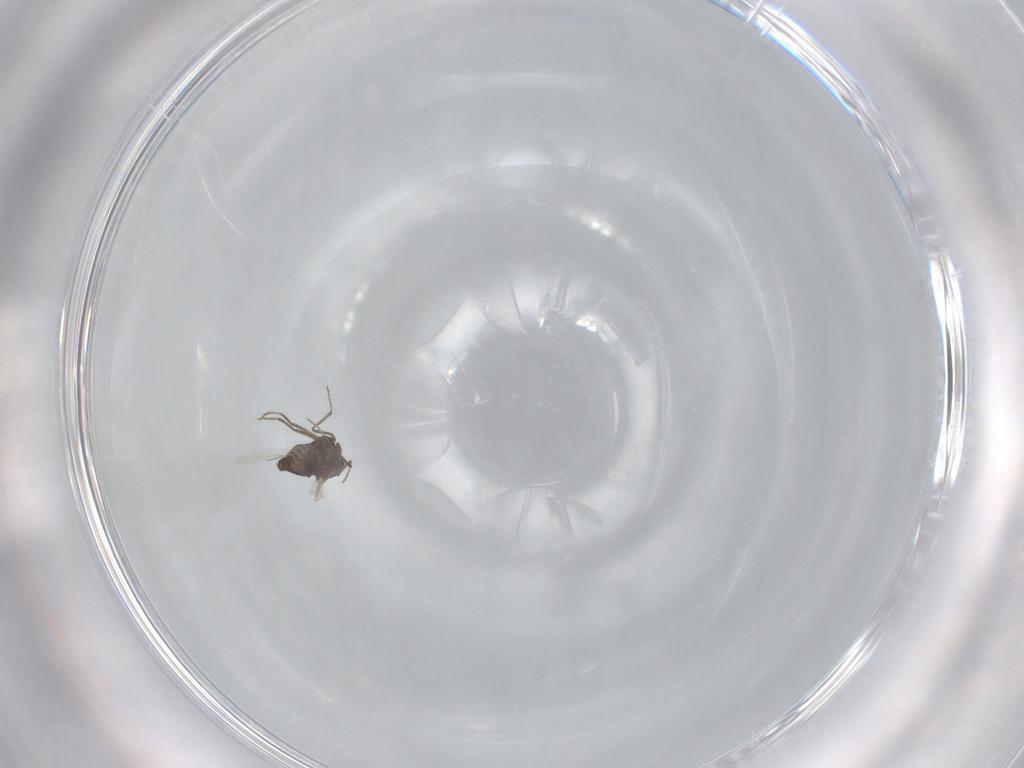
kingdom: Animalia
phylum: Arthropoda
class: Insecta
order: Diptera
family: Ceratopogonidae
